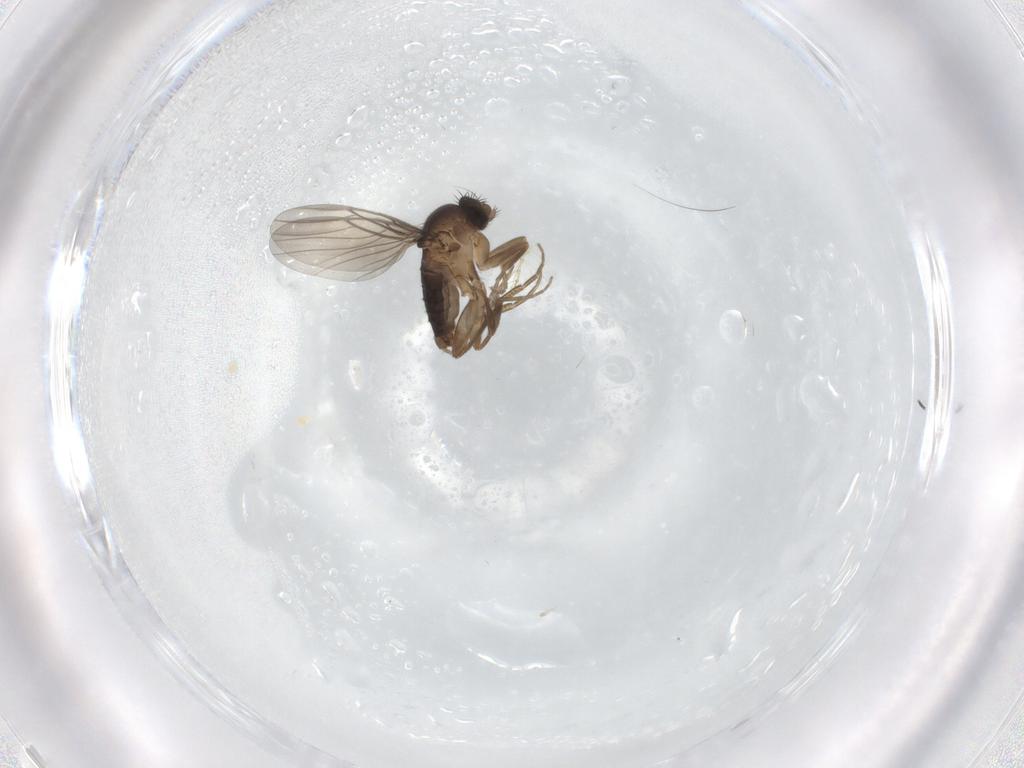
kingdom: Animalia
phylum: Arthropoda
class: Insecta
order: Diptera
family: Phoridae
